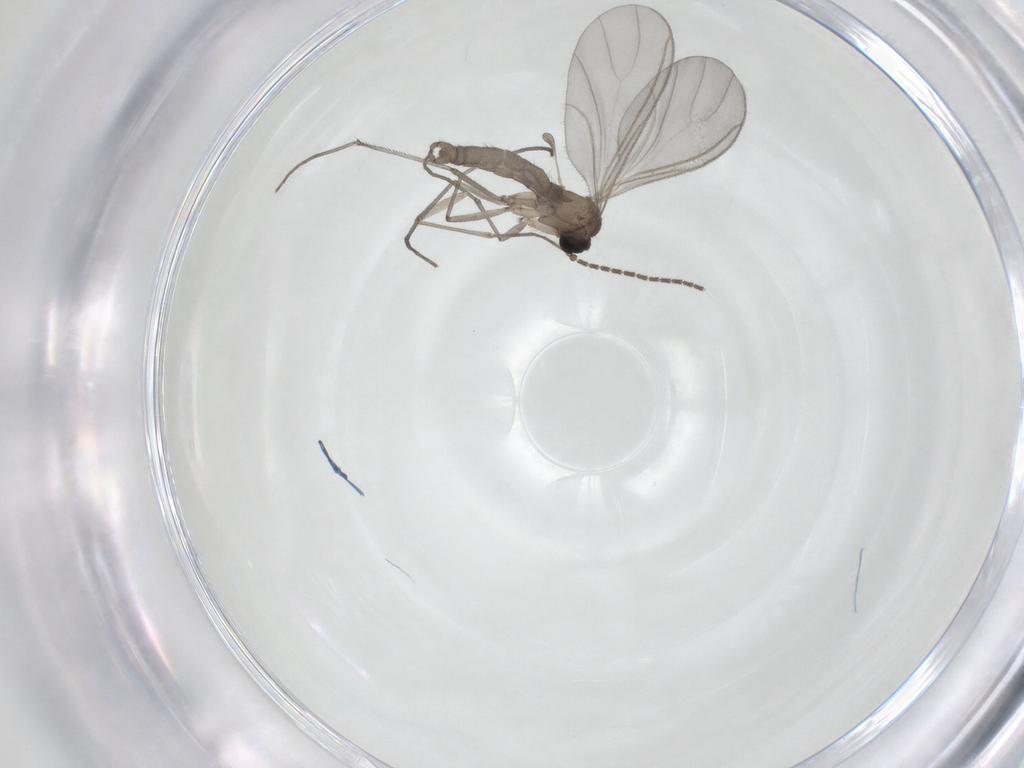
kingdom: Animalia
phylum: Arthropoda
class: Insecta
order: Diptera
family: Sciaridae
